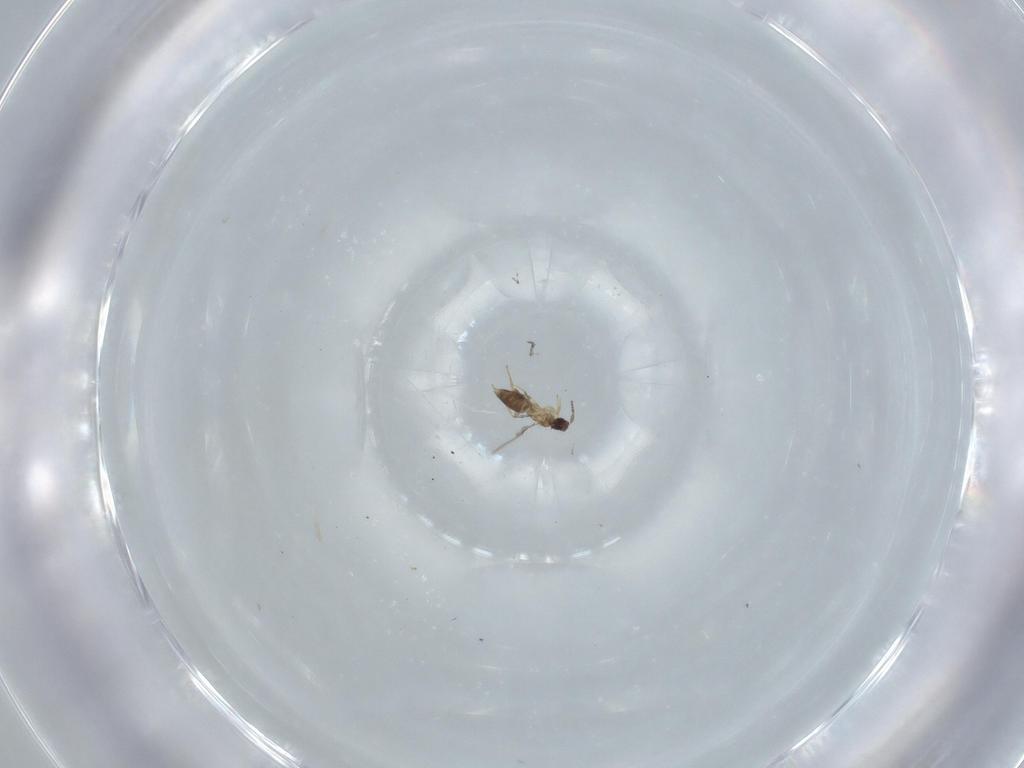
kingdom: Animalia
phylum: Arthropoda
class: Insecta
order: Hymenoptera
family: Mymaridae
